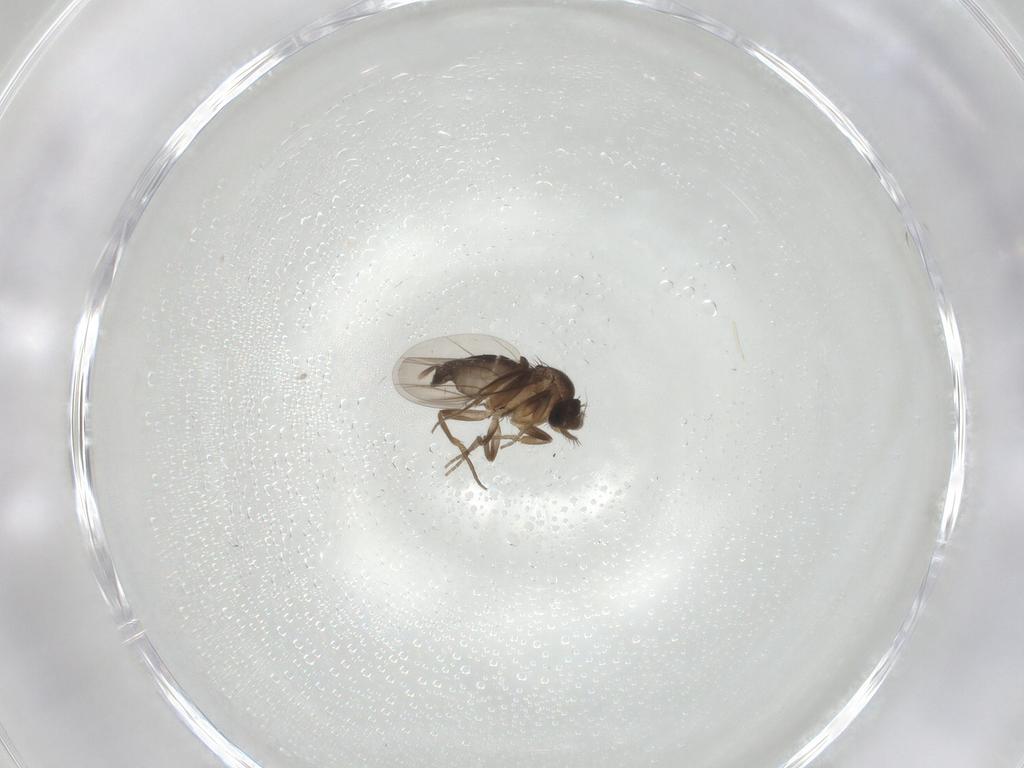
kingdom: Animalia
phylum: Arthropoda
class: Insecta
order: Diptera
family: Phoridae
